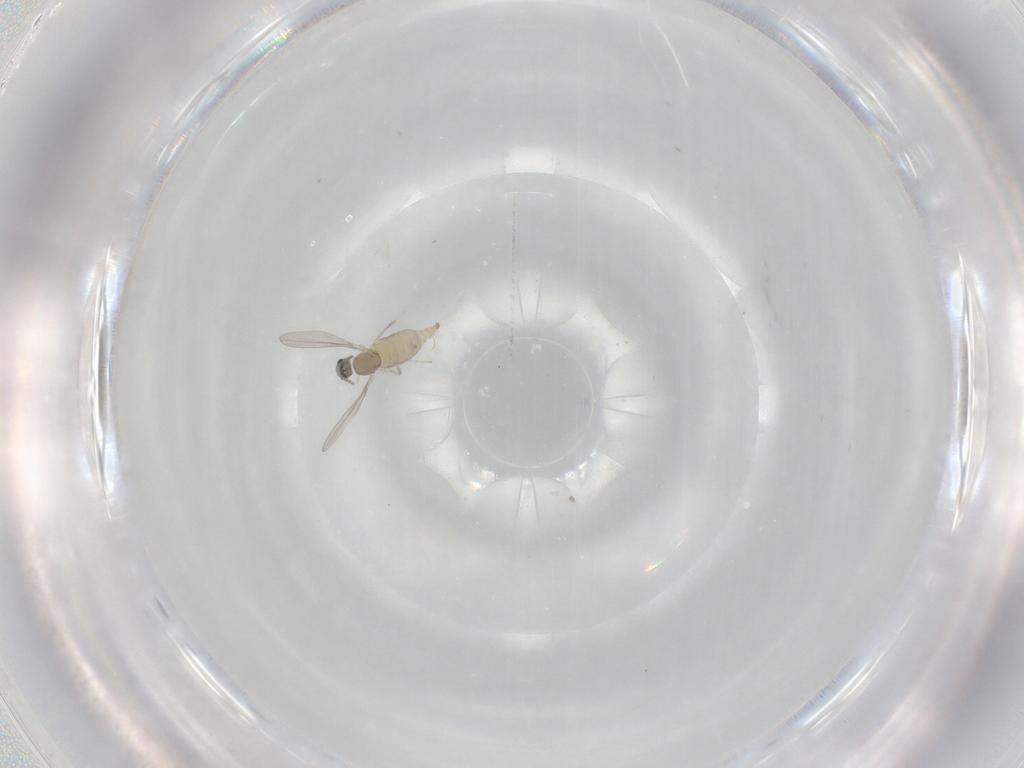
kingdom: Animalia
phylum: Arthropoda
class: Insecta
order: Diptera
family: Cecidomyiidae
